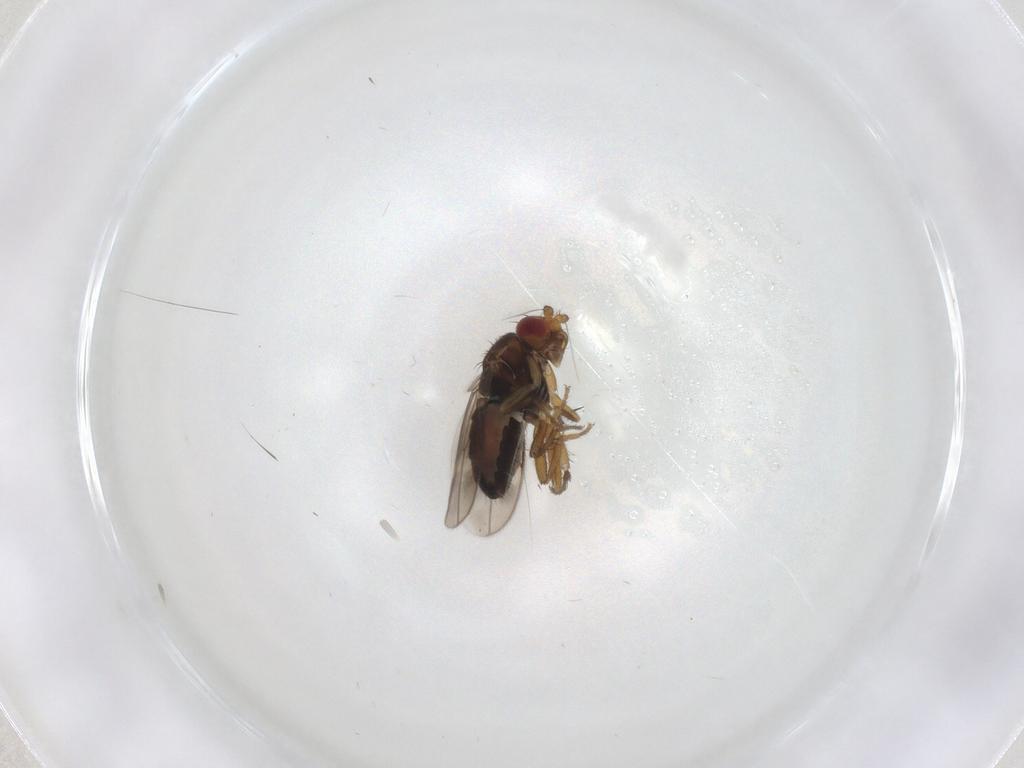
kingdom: Animalia
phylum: Arthropoda
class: Insecta
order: Diptera
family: Sphaeroceridae
